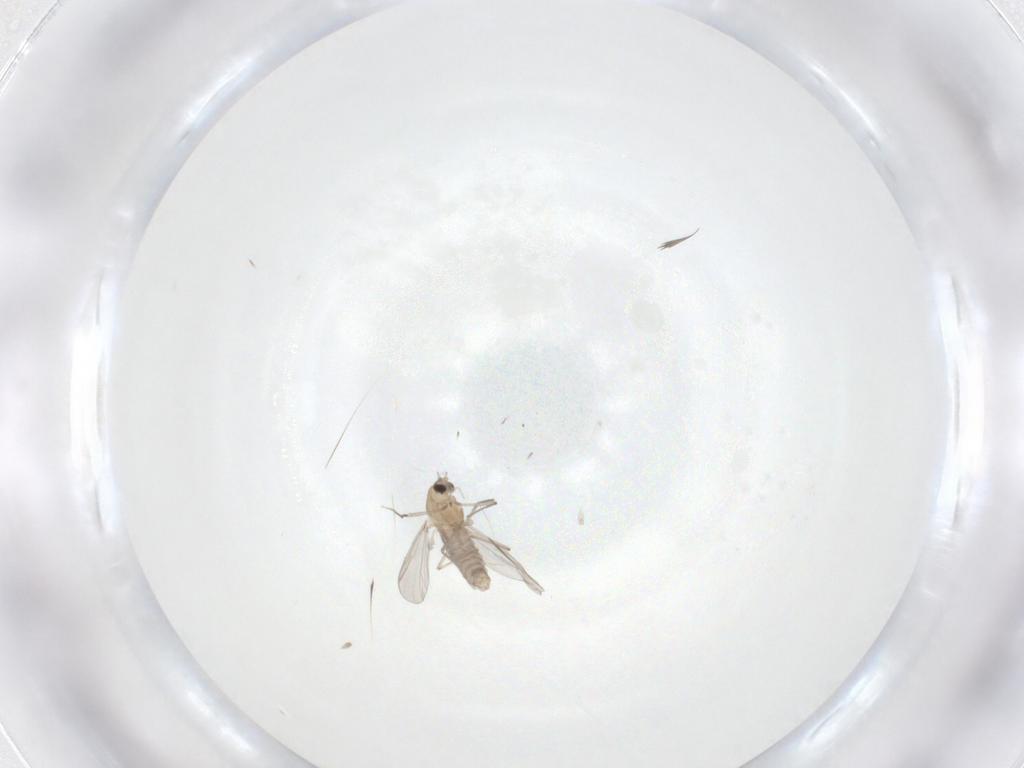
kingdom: Animalia
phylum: Arthropoda
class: Insecta
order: Diptera
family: Chironomidae
